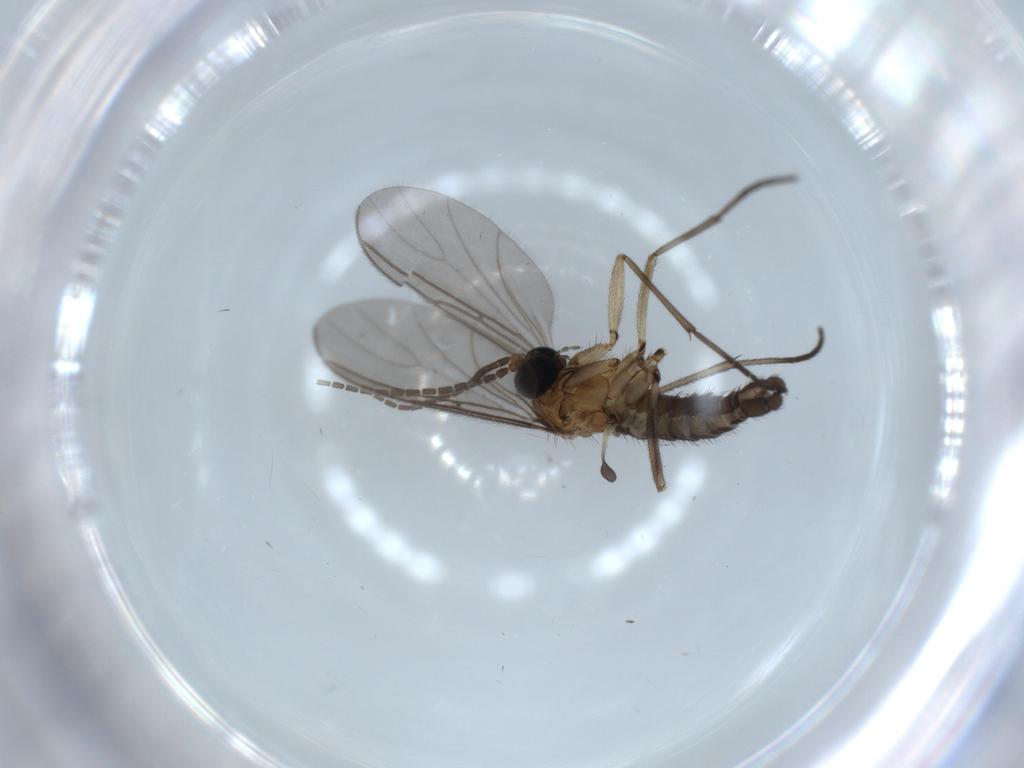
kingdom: Animalia
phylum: Arthropoda
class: Insecta
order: Diptera
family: Sciaridae
